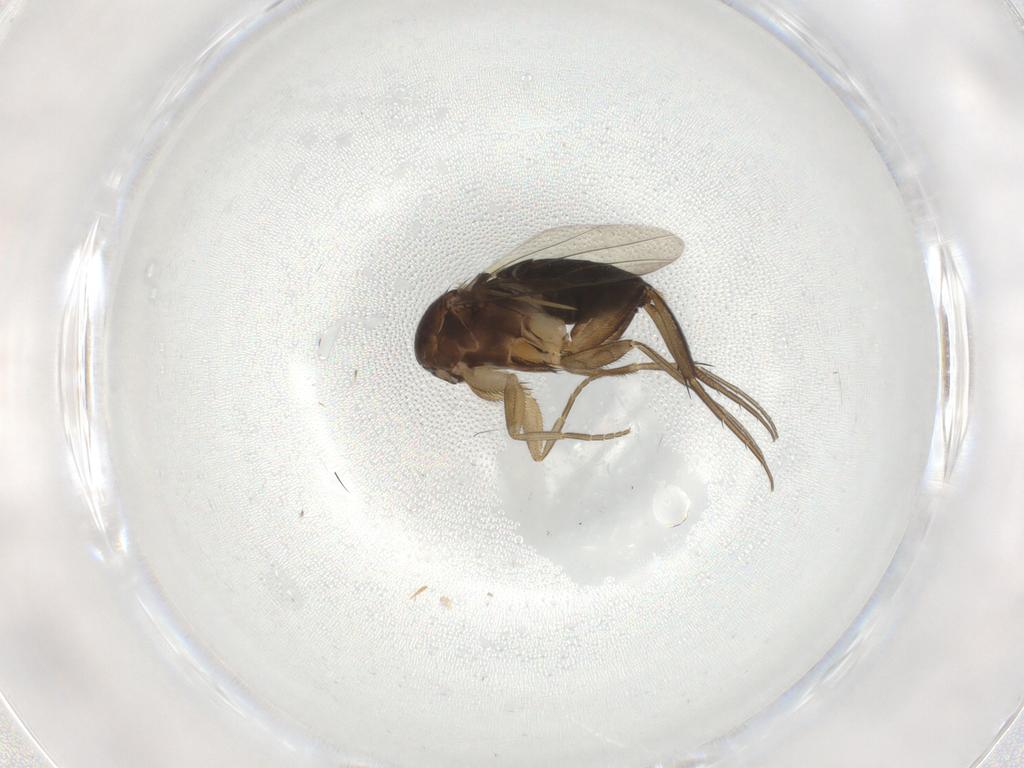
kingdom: Animalia
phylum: Arthropoda
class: Insecta
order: Diptera
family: Phoridae
